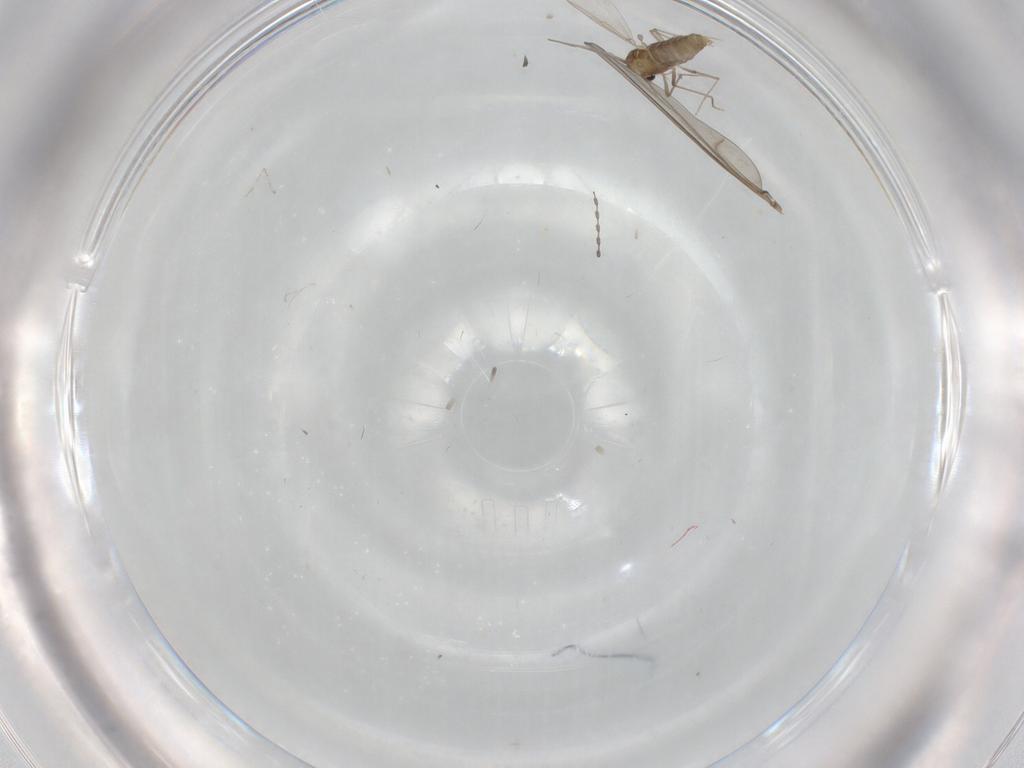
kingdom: Animalia
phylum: Arthropoda
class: Insecta
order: Diptera
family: Chironomidae
